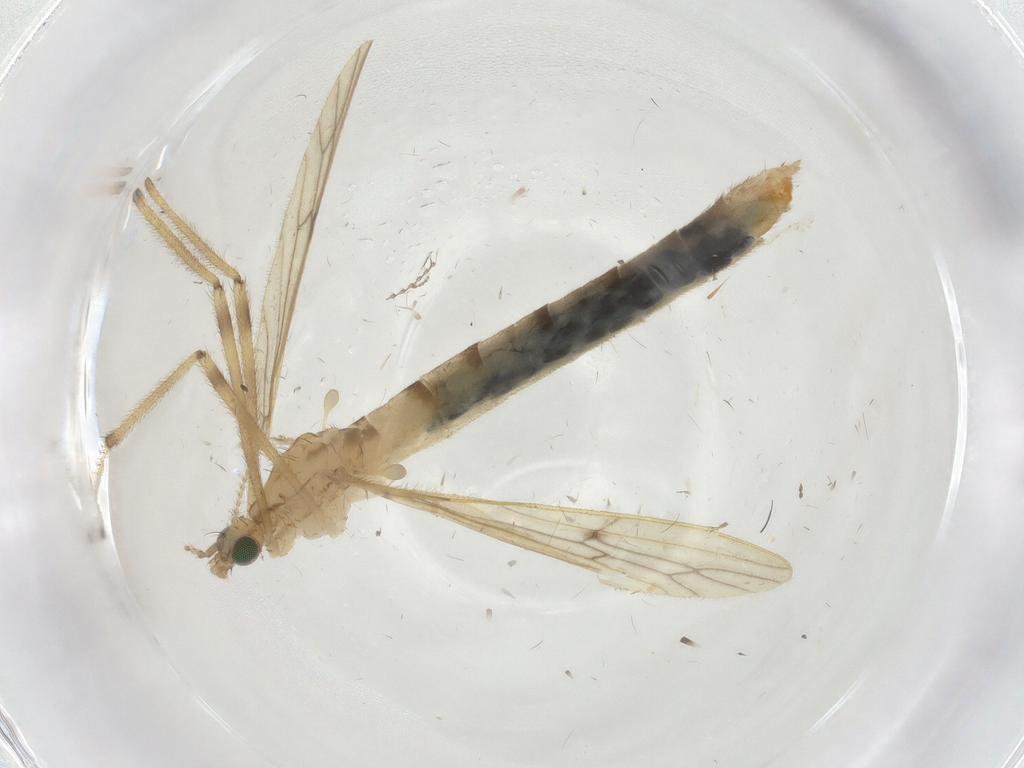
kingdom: Animalia
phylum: Arthropoda
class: Insecta
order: Diptera
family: Limoniidae
